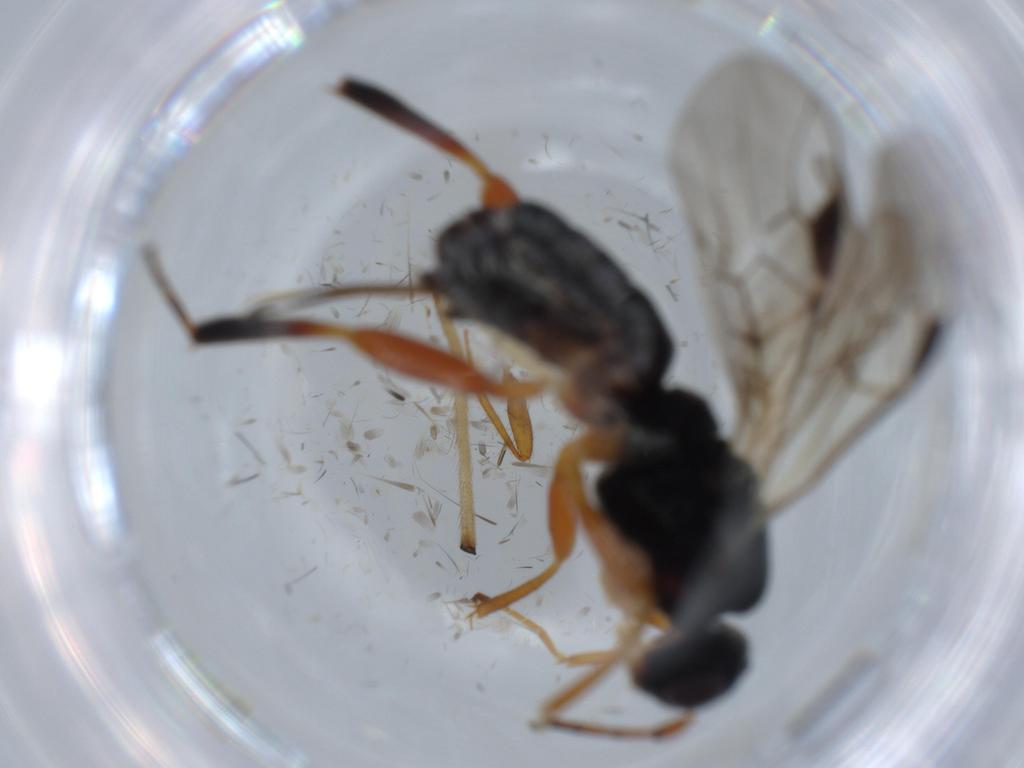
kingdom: Animalia
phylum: Arthropoda
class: Insecta
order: Hymenoptera
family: Braconidae
